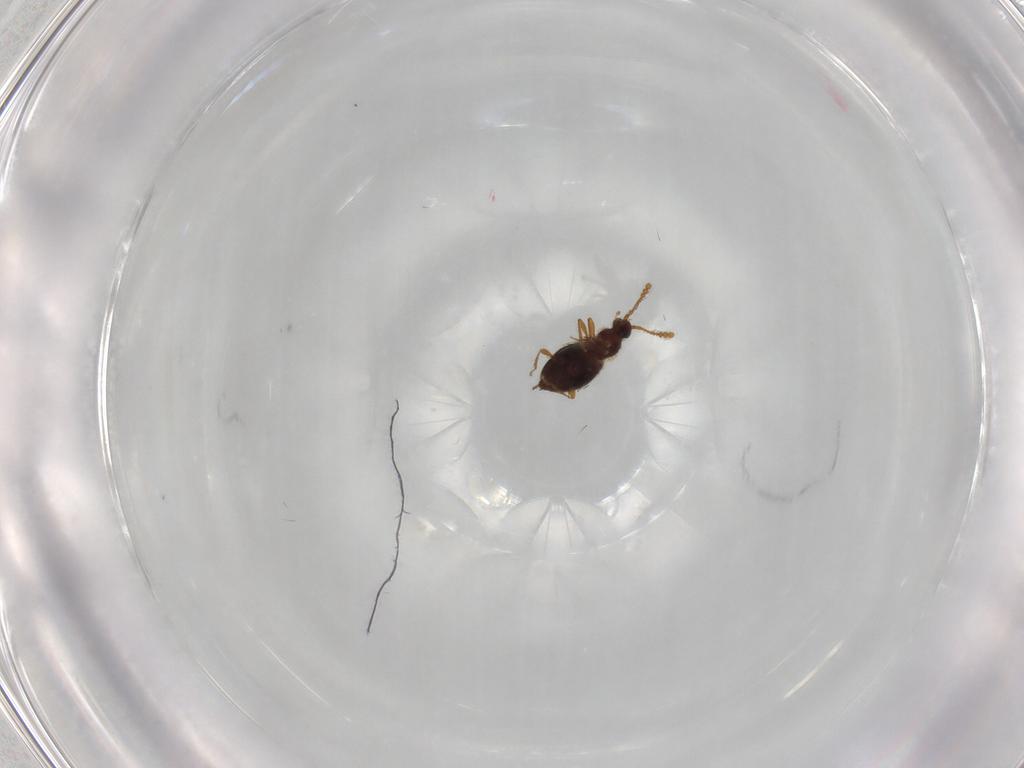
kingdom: Animalia
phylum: Arthropoda
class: Insecta
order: Coleoptera
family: Staphylinidae
